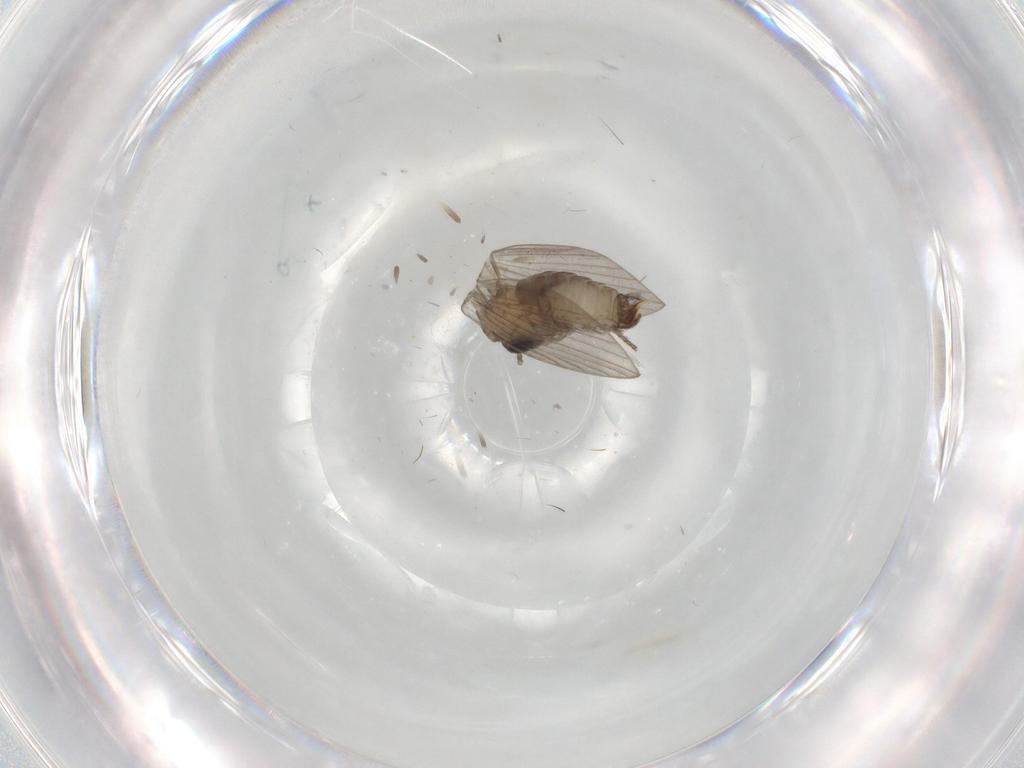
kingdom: Animalia
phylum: Arthropoda
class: Insecta
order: Diptera
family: Psychodidae
